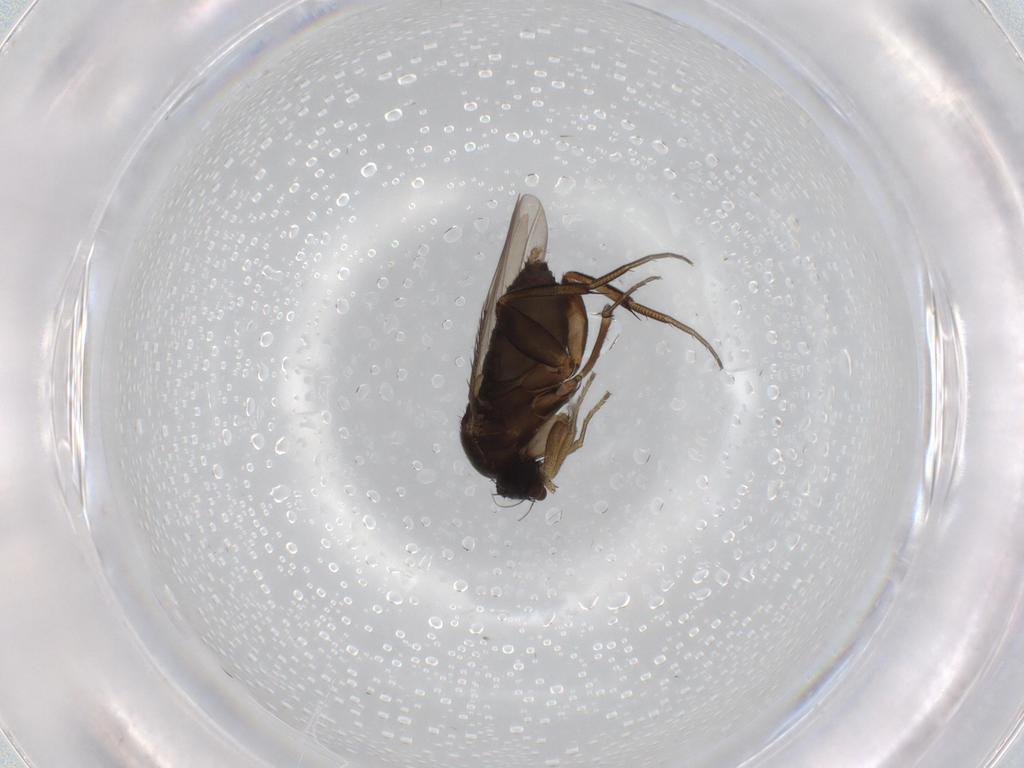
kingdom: Animalia
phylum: Arthropoda
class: Insecta
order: Diptera
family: Phoridae
